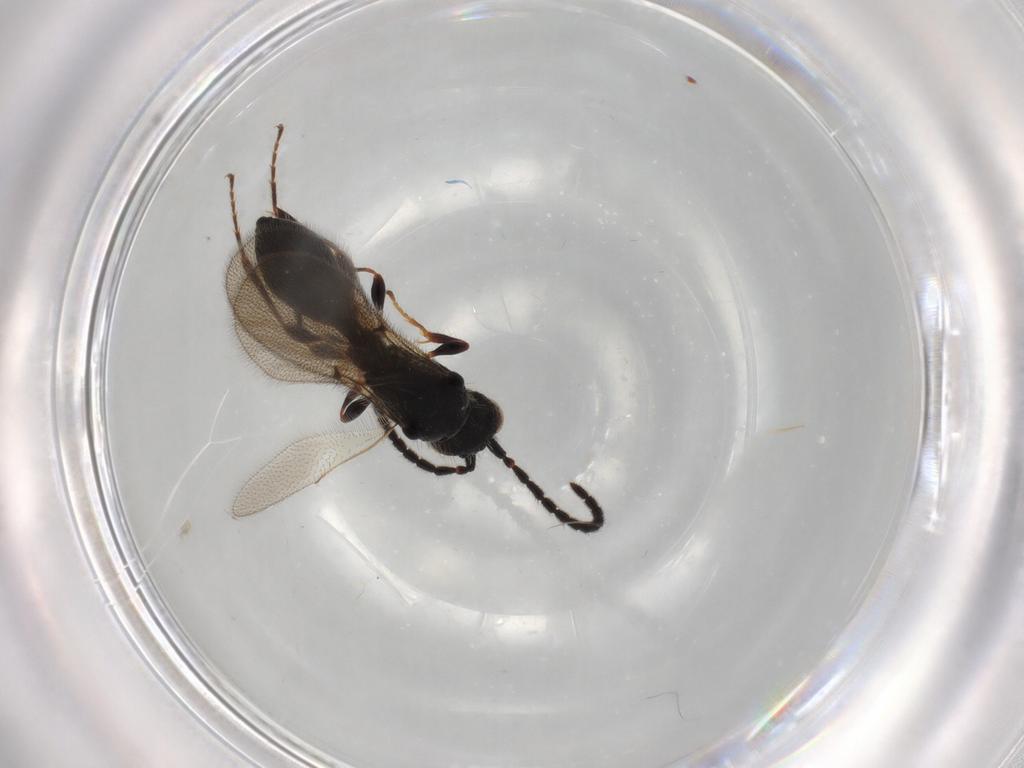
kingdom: Animalia
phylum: Arthropoda
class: Insecta
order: Hymenoptera
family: Diapriidae
